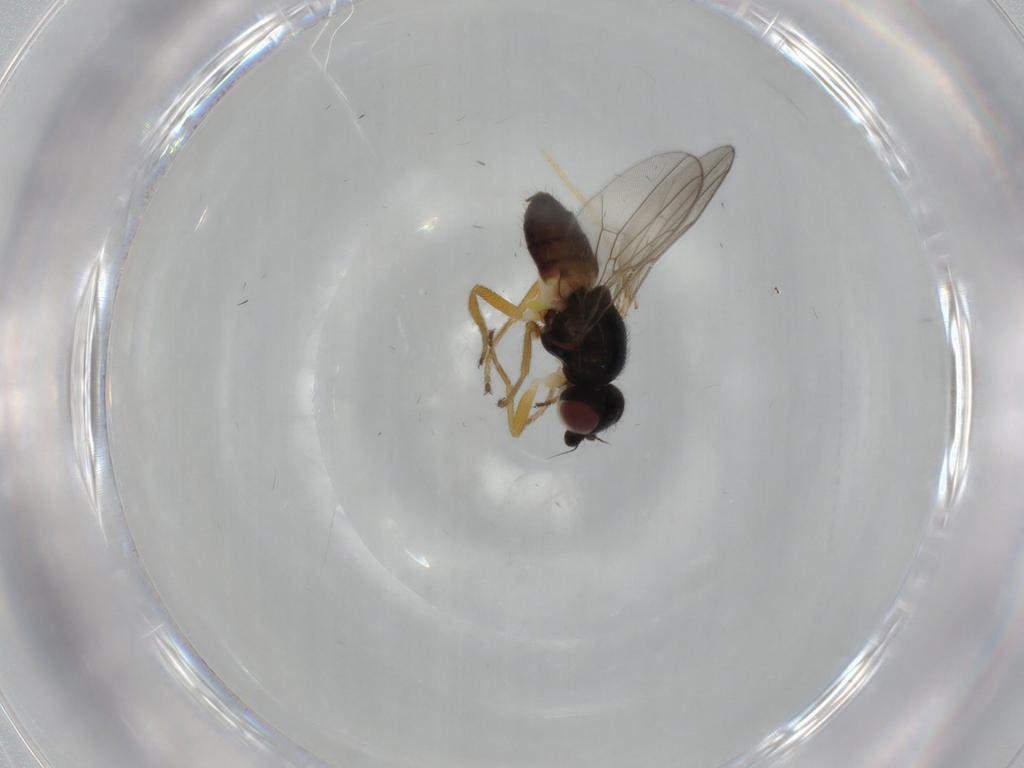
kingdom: Animalia
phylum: Arthropoda
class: Insecta
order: Diptera
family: Chloropidae
